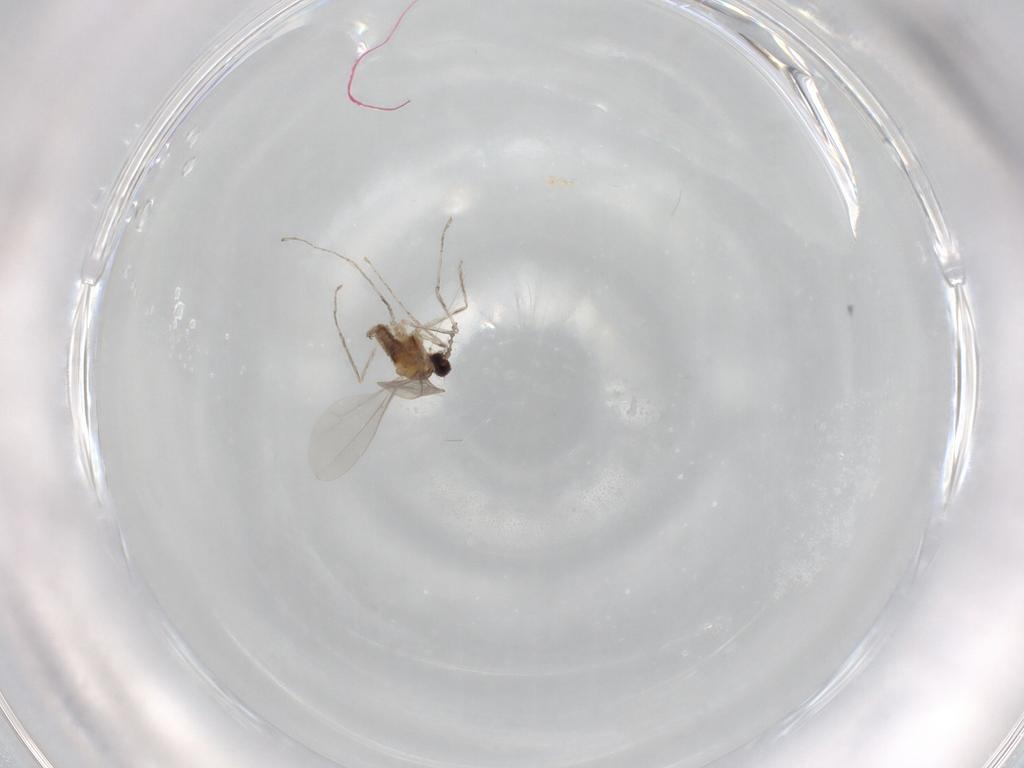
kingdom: Animalia
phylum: Arthropoda
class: Insecta
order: Diptera
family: Cecidomyiidae
